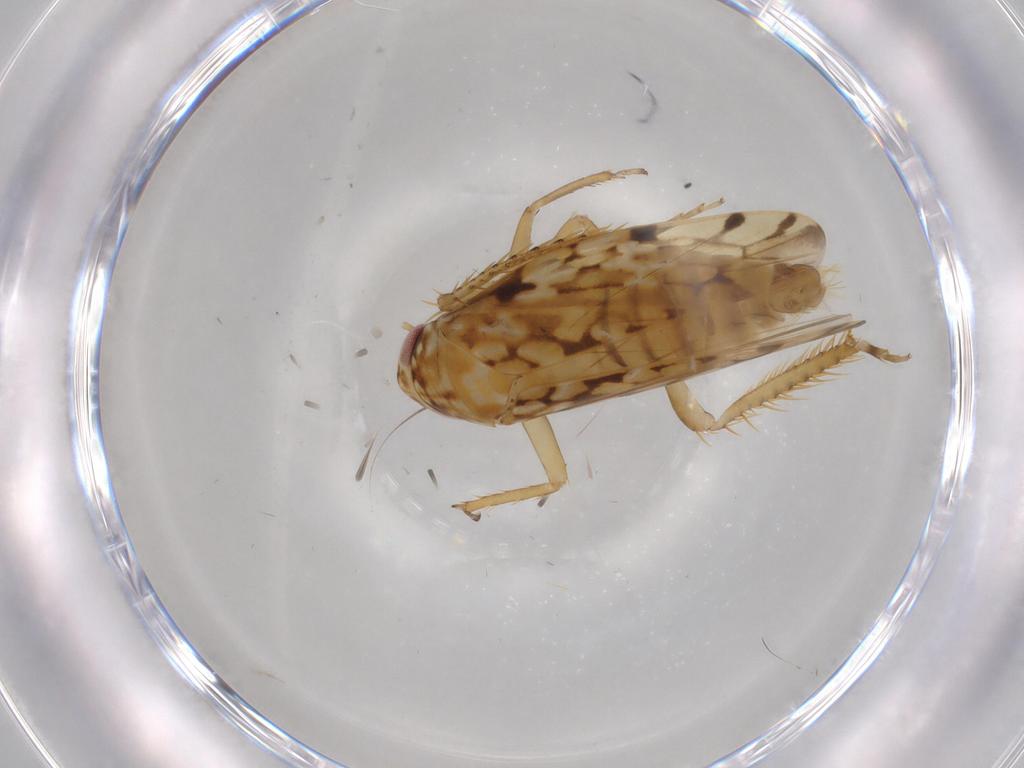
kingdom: Animalia
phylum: Arthropoda
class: Insecta
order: Hemiptera
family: Cicadellidae
